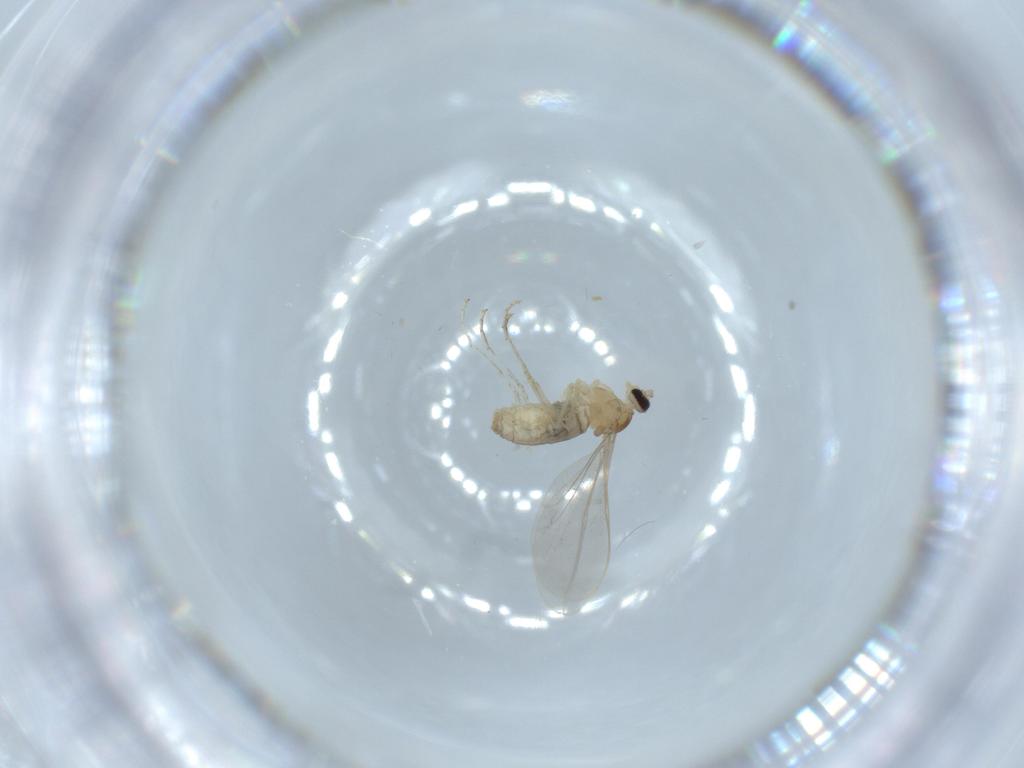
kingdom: Animalia
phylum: Arthropoda
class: Insecta
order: Diptera
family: Cecidomyiidae
